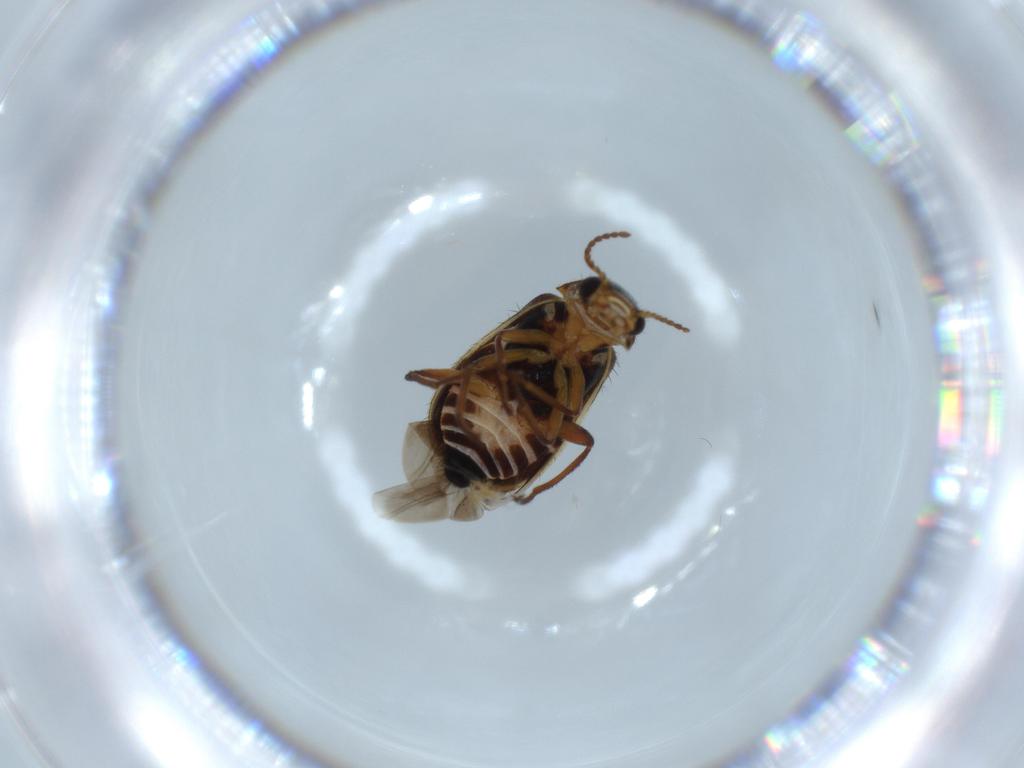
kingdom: Animalia
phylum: Arthropoda
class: Insecta
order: Coleoptera
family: Melyridae
